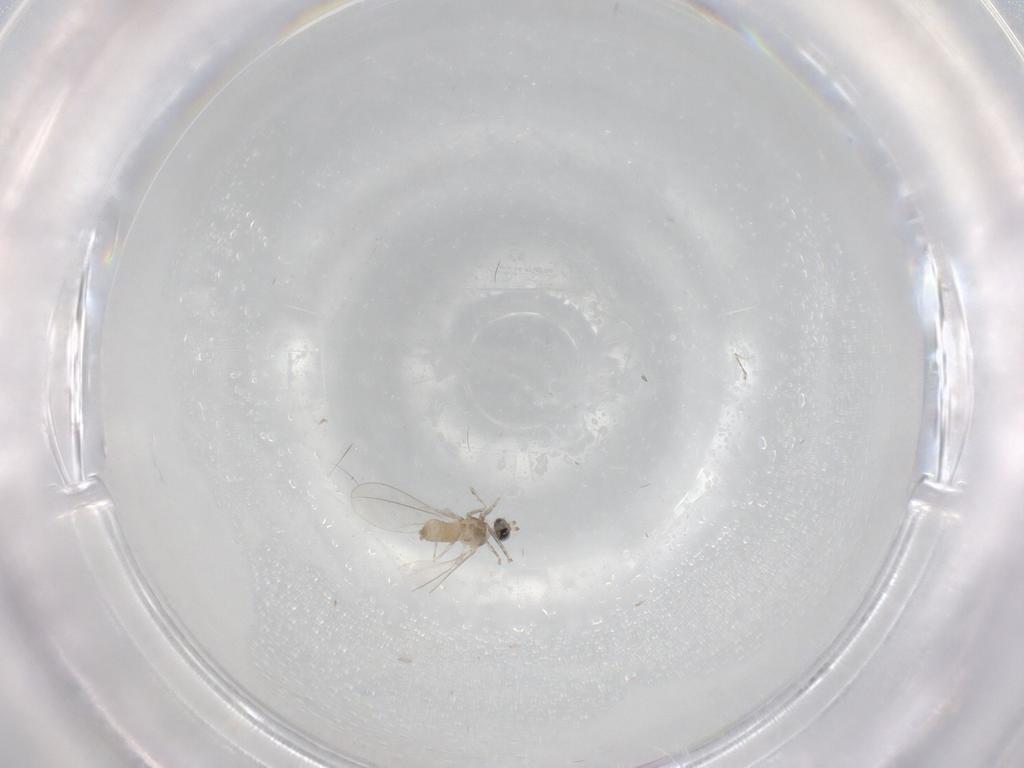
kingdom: Animalia
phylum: Arthropoda
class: Insecta
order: Diptera
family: Cecidomyiidae
